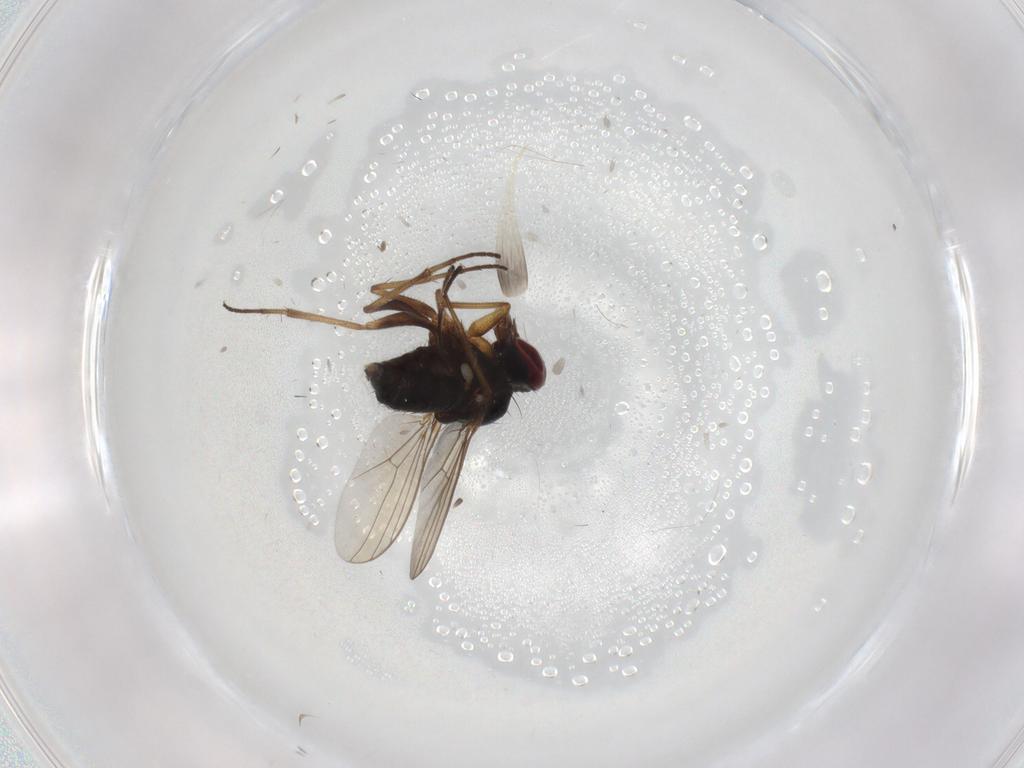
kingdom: Animalia
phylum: Arthropoda
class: Insecta
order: Diptera
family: Dolichopodidae
